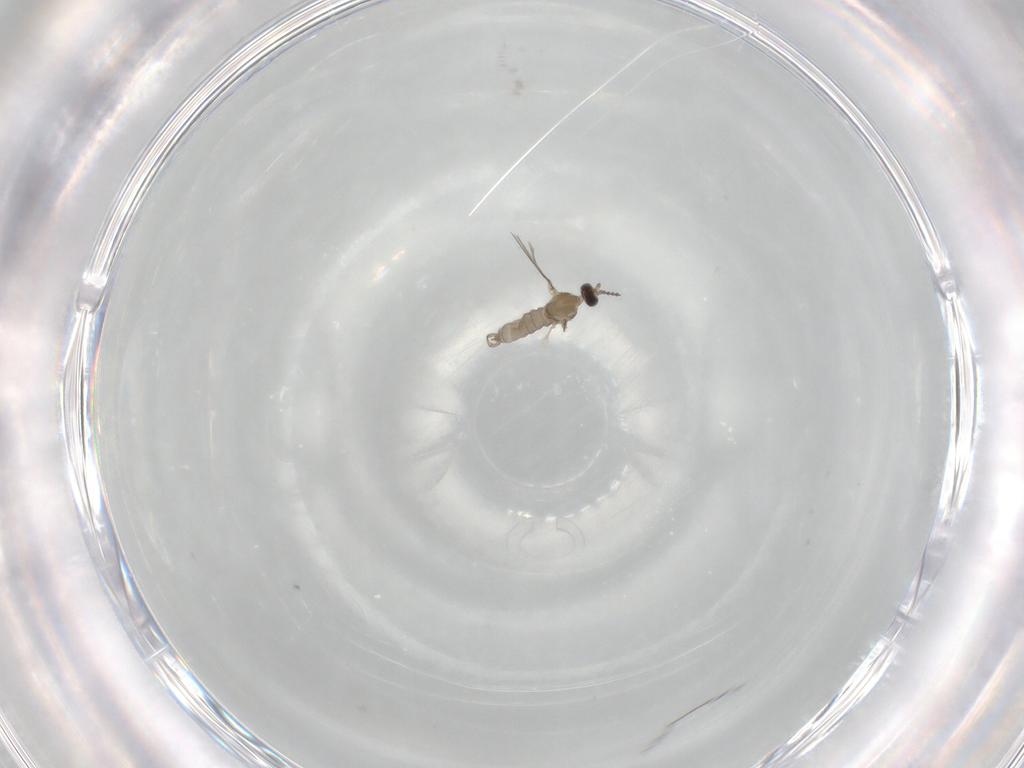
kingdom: Animalia
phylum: Arthropoda
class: Insecta
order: Diptera
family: Cecidomyiidae
